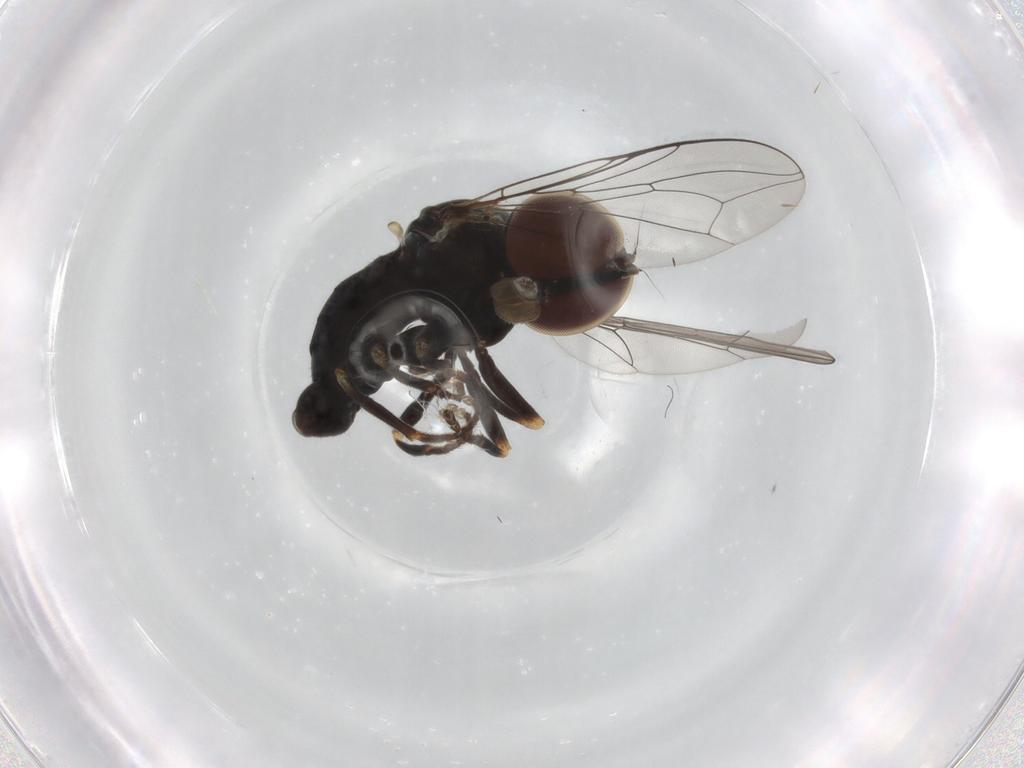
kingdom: Animalia
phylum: Arthropoda
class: Insecta
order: Diptera
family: Pipunculidae
